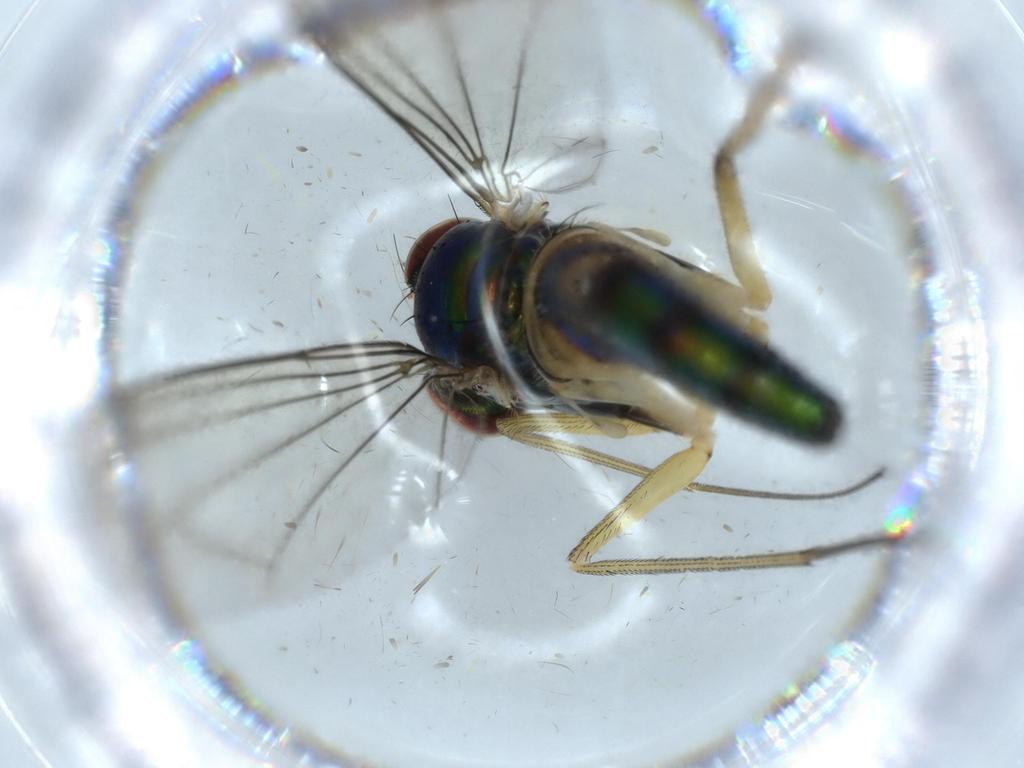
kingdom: Animalia
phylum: Arthropoda
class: Insecta
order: Diptera
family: Dolichopodidae
